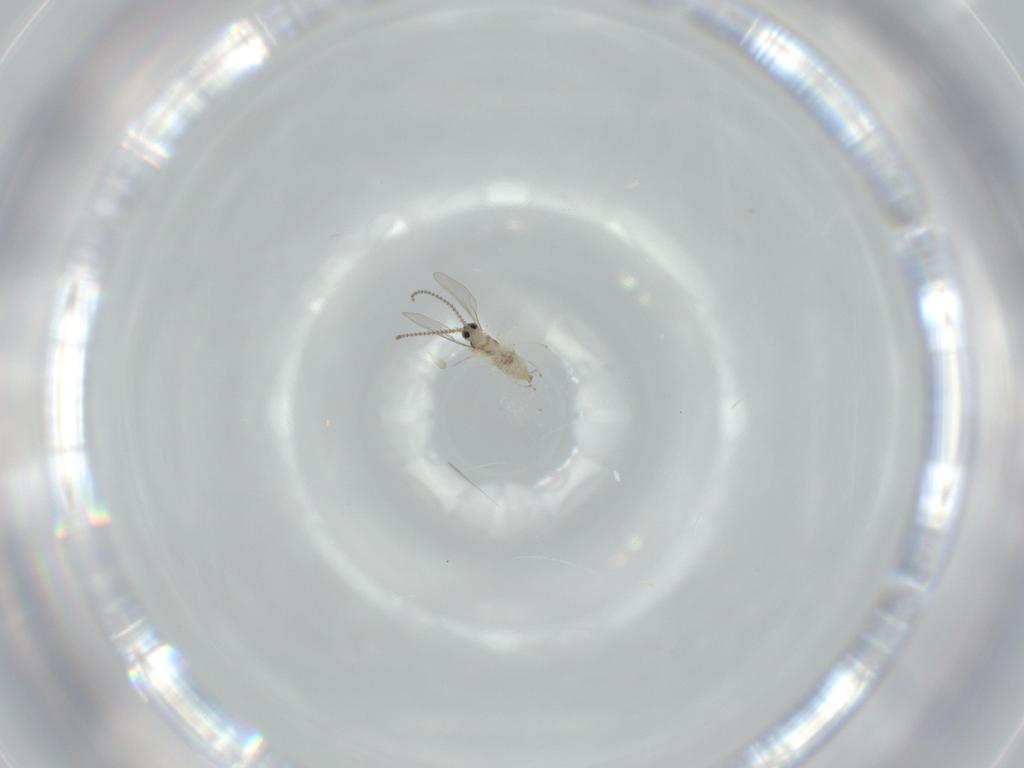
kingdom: Animalia
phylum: Arthropoda
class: Insecta
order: Diptera
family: Cecidomyiidae
